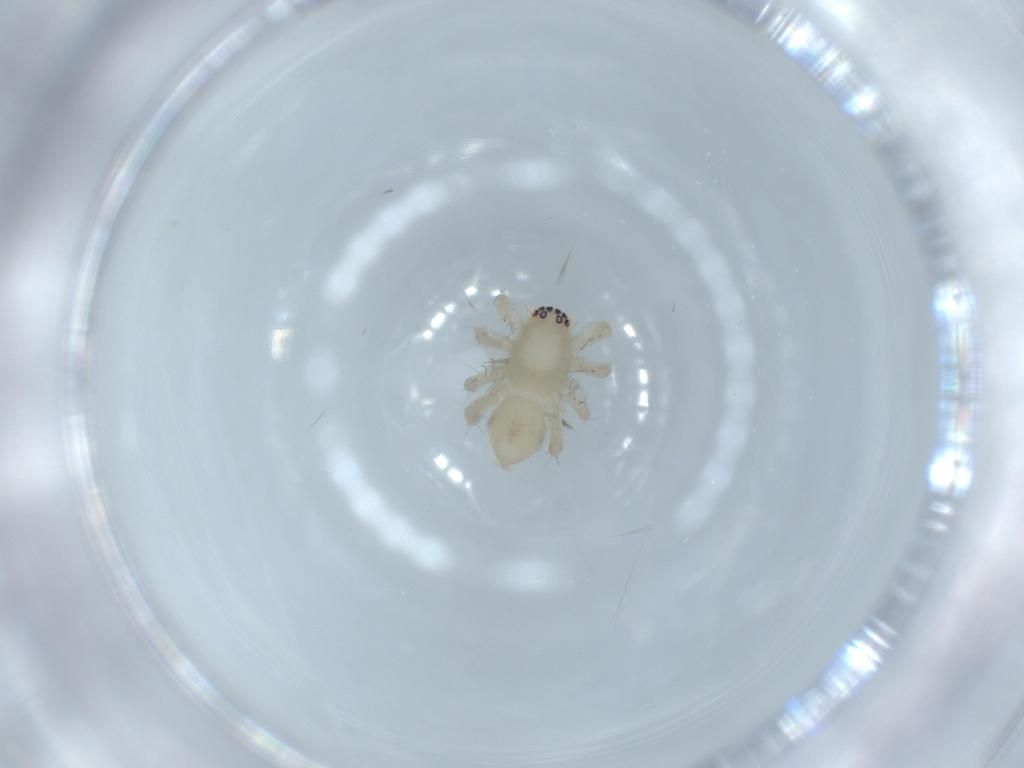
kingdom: Animalia
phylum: Arthropoda
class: Arachnida
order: Araneae
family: Clubionidae
